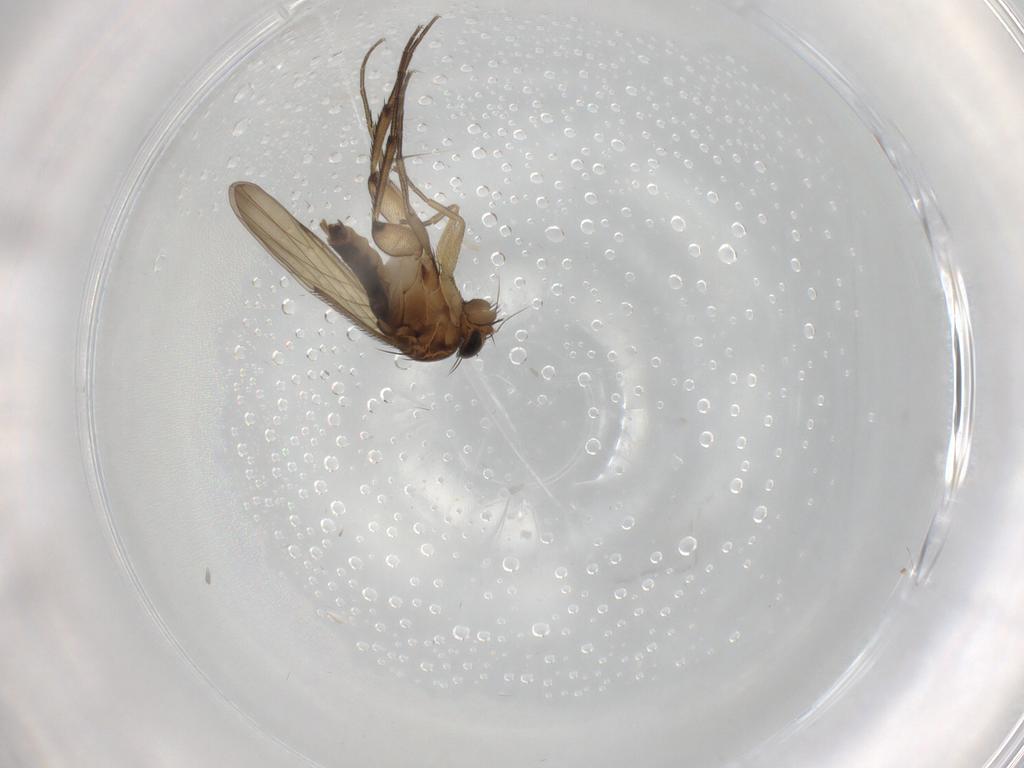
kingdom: Animalia
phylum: Arthropoda
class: Insecta
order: Diptera
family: Phoridae
